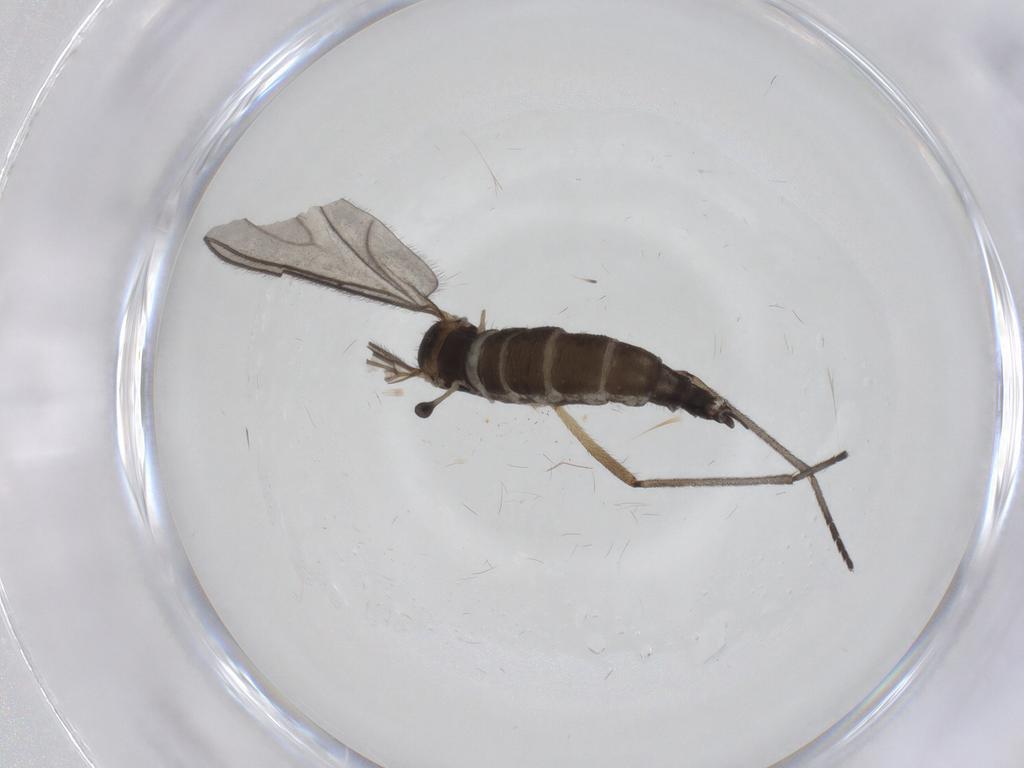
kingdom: Animalia
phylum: Arthropoda
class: Insecta
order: Diptera
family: Sciaridae
